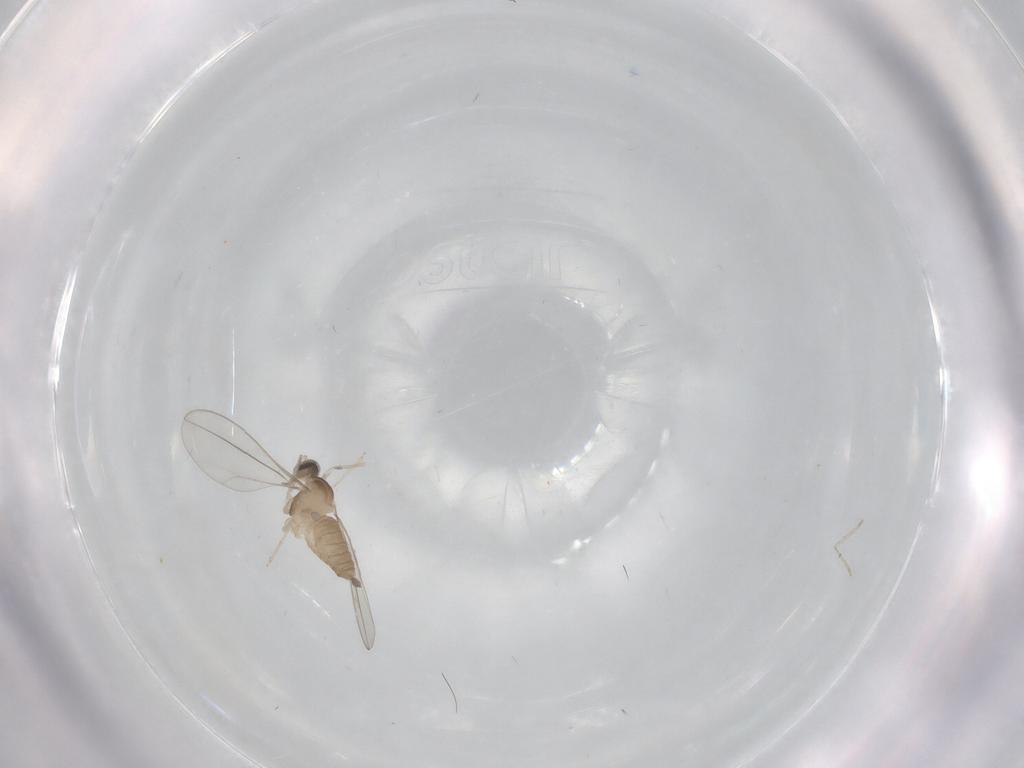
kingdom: Animalia
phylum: Arthropoda
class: Insecta
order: Diptera
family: Cecidomyiidae
